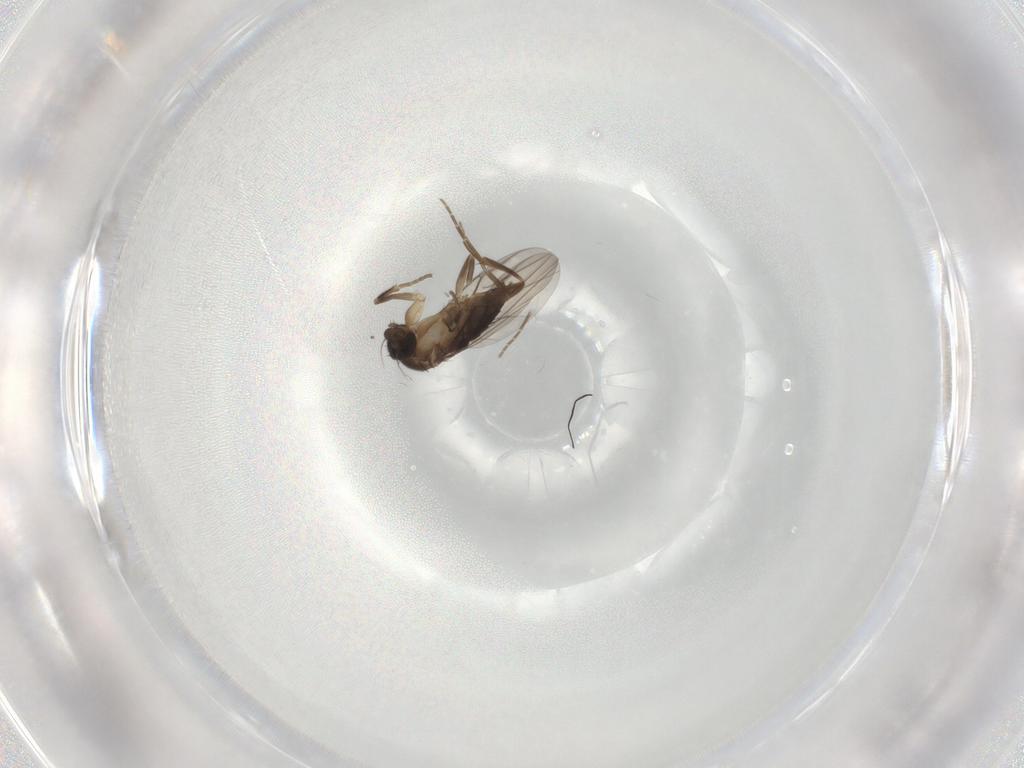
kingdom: Animalia
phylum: Arthropoda
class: Insecta
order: Diptera
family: Phoridae
